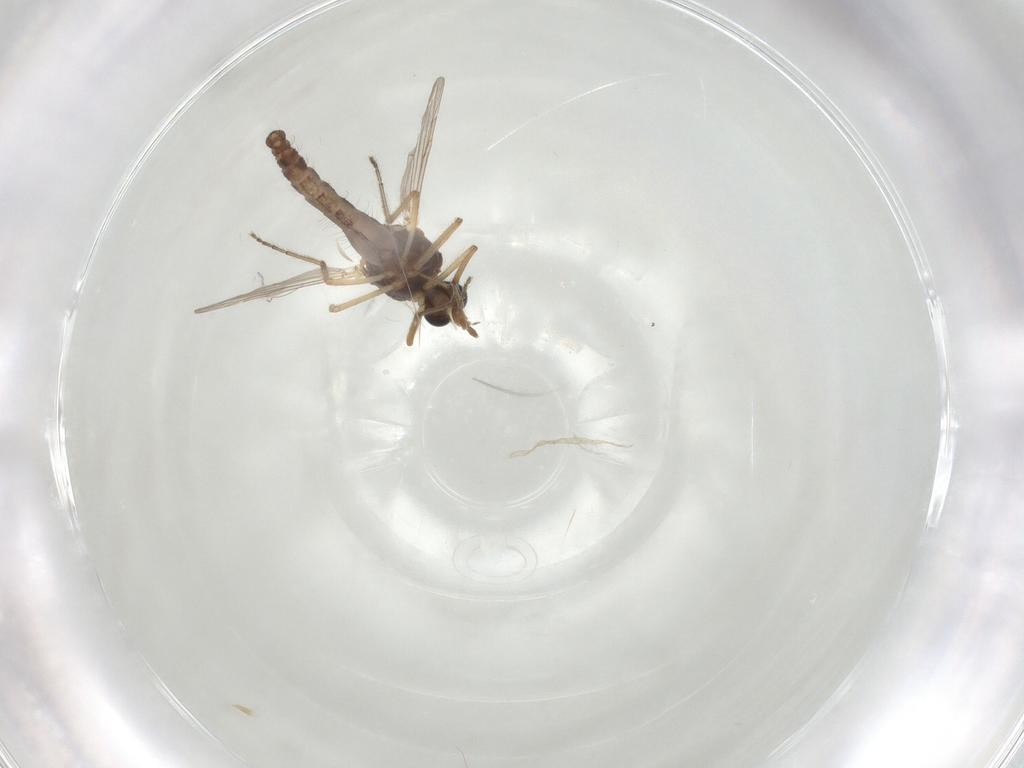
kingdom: Animalia
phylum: Arthropoda
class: Insecta
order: Diptera
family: Ceratopogonidae
